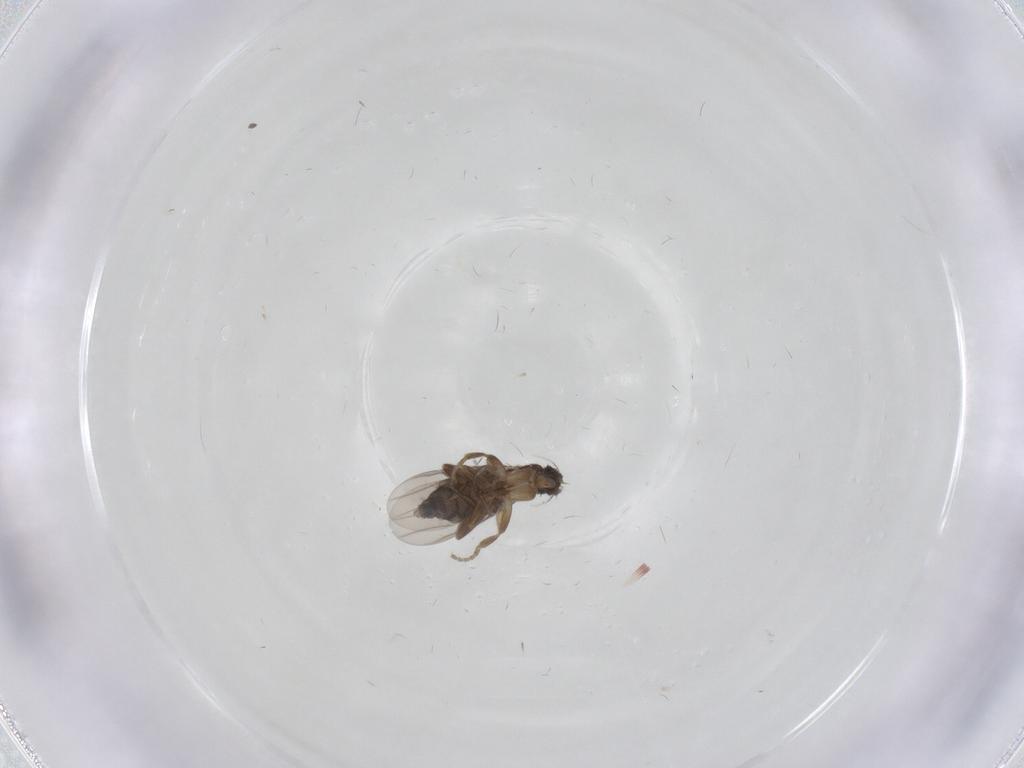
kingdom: Animalia
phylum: Arthropoda
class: Insecta
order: Diptera
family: Phoridae
